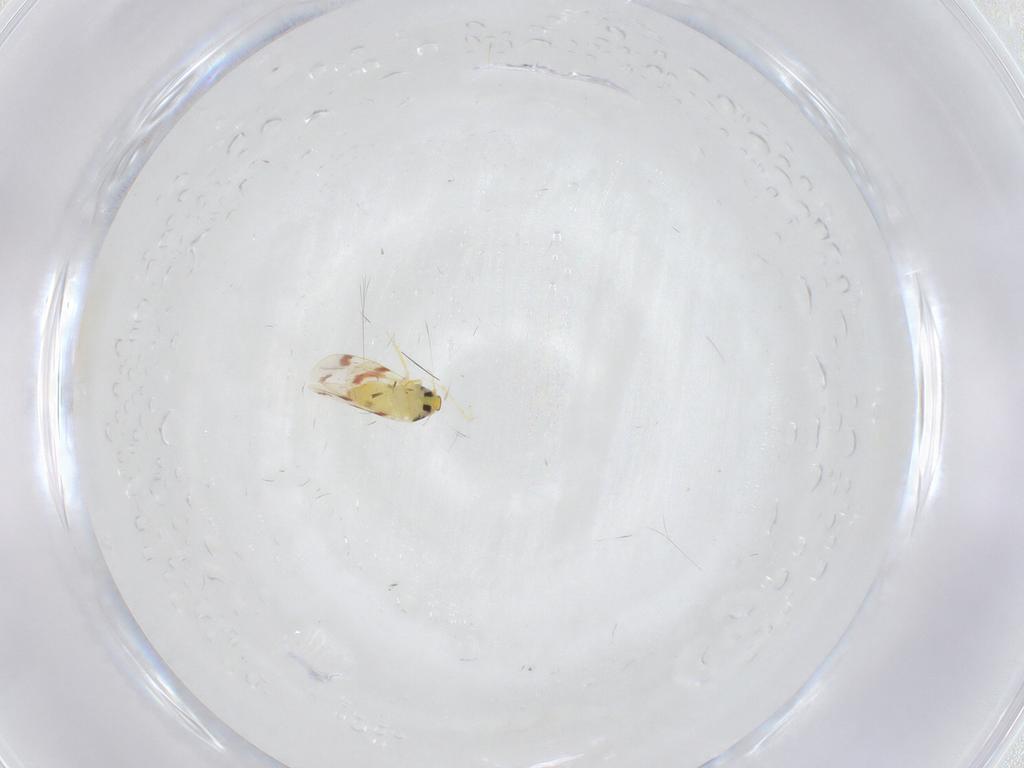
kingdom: Animalia
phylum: Arthropoda
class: Insecta
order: Hemiptera
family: Aleyrodidae
